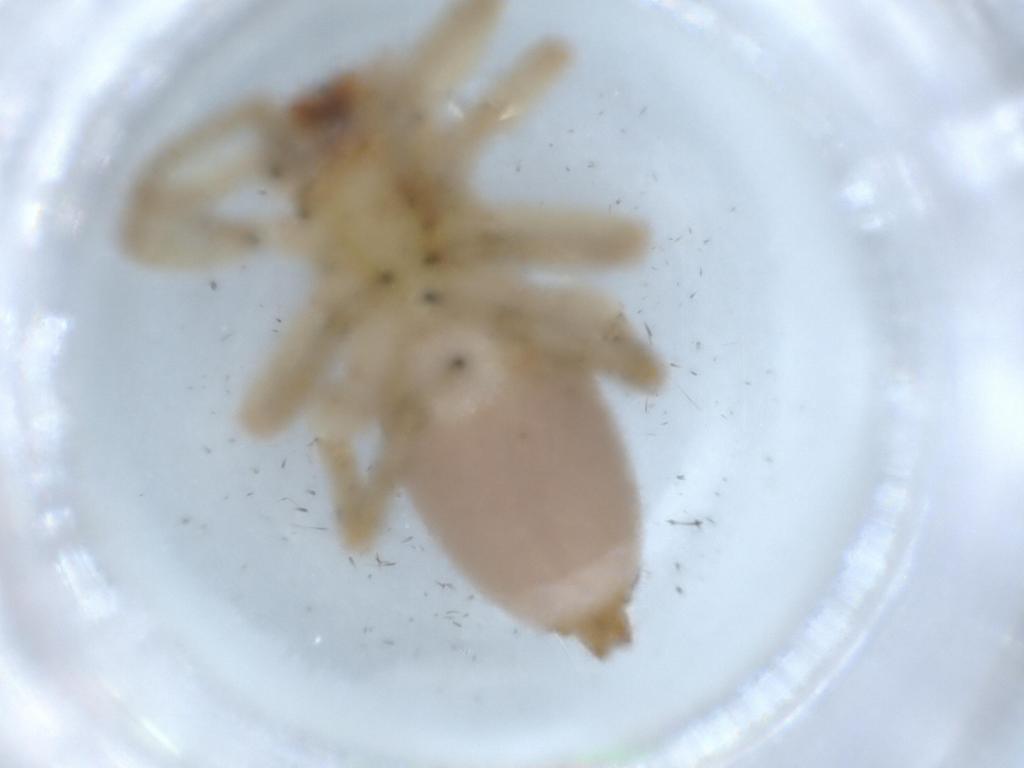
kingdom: Animalia
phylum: Arthropoda
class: Arachnida
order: Araneae
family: Clubionidae
